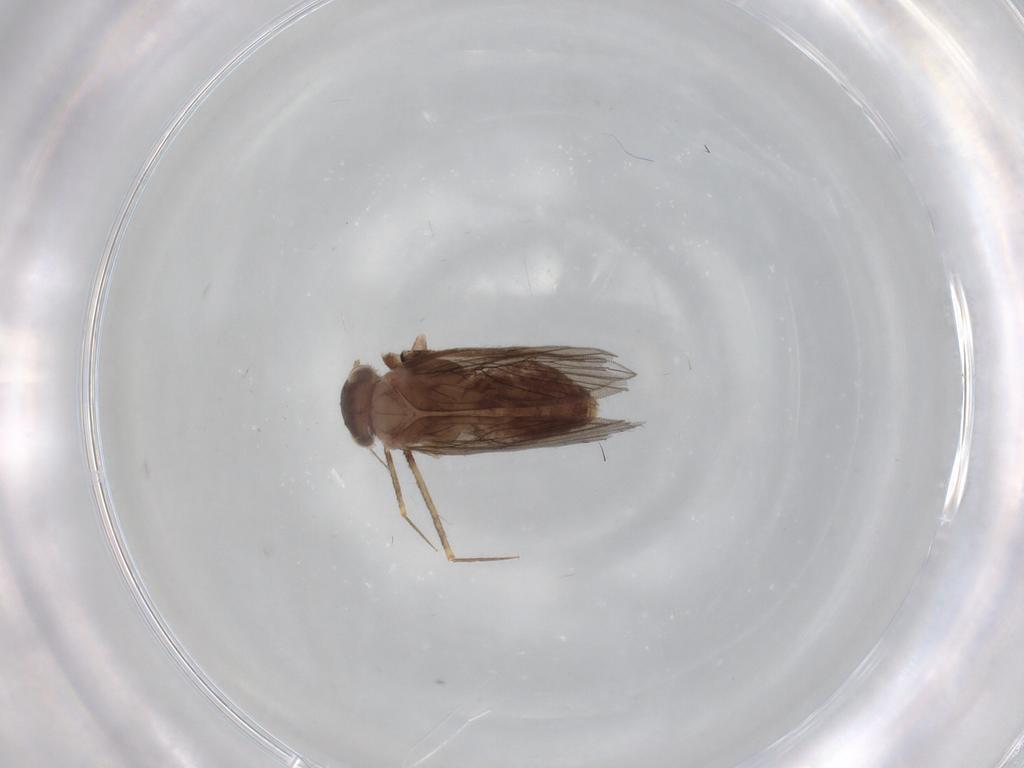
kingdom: Animalia
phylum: Arthropoda
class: Insecta
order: Psocodea
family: Lepidopsocidae
